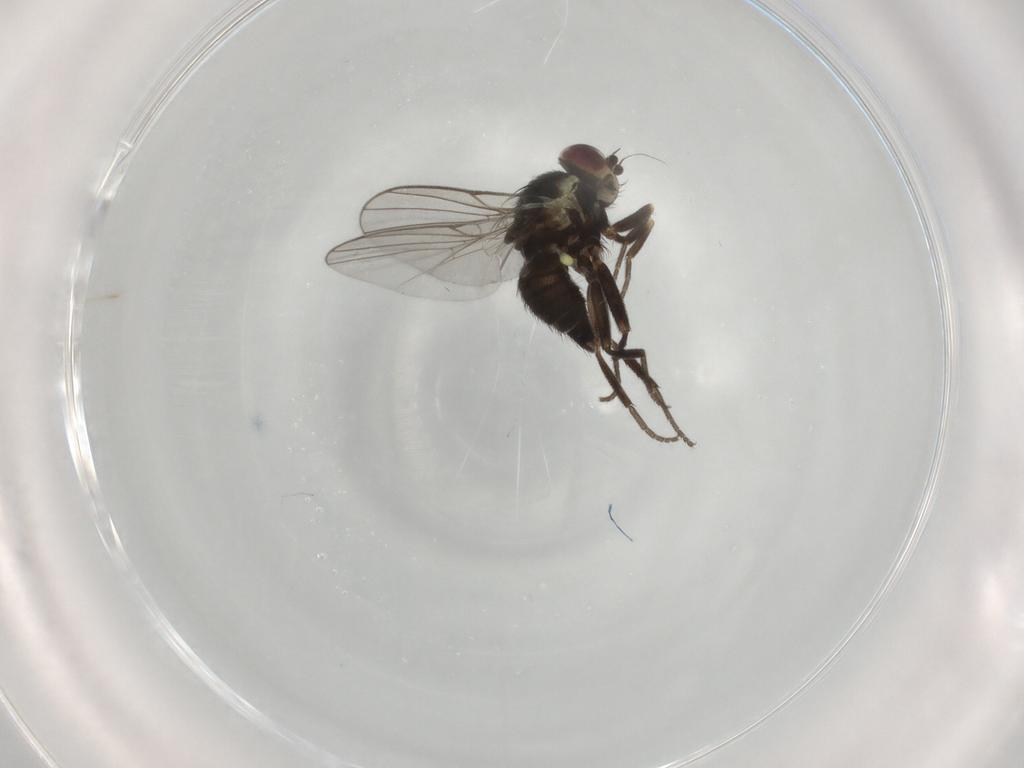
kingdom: Animalia
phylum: Arthropoda
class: Insecta
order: Diptera
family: Agromyzidae
